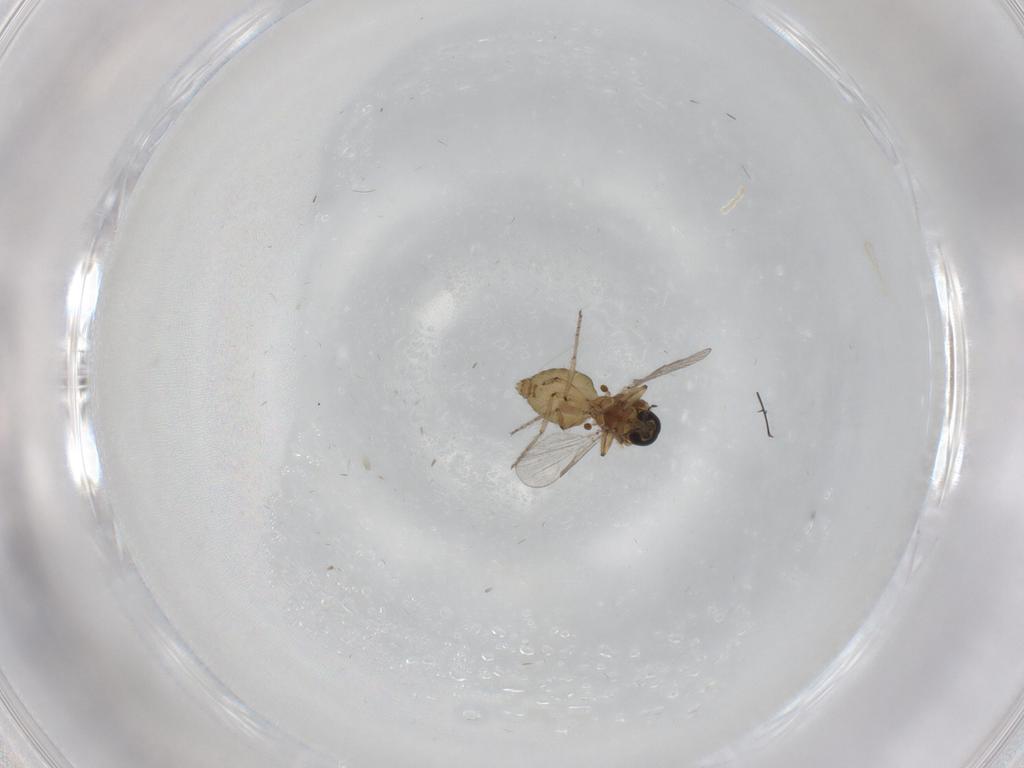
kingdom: Animalia
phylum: Arthropoda
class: Insecta
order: Diptera
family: Ceratopogonidae
